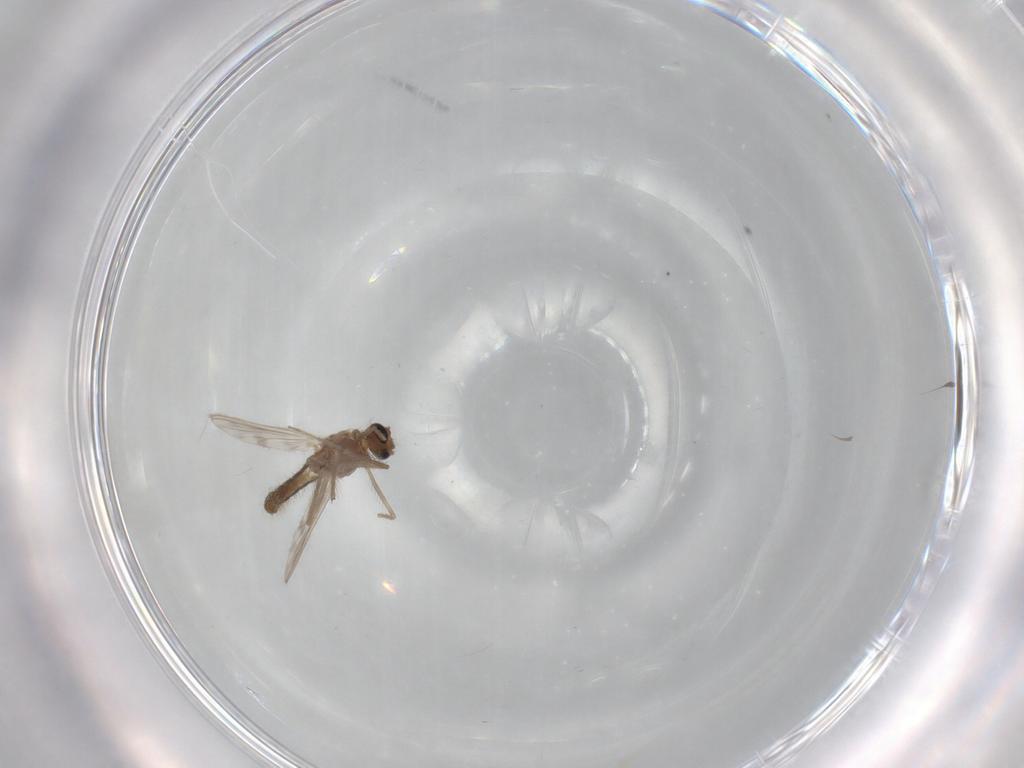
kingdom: Animalia
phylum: Arthropoda
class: Insecta
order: Diptera
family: Chironomidae
